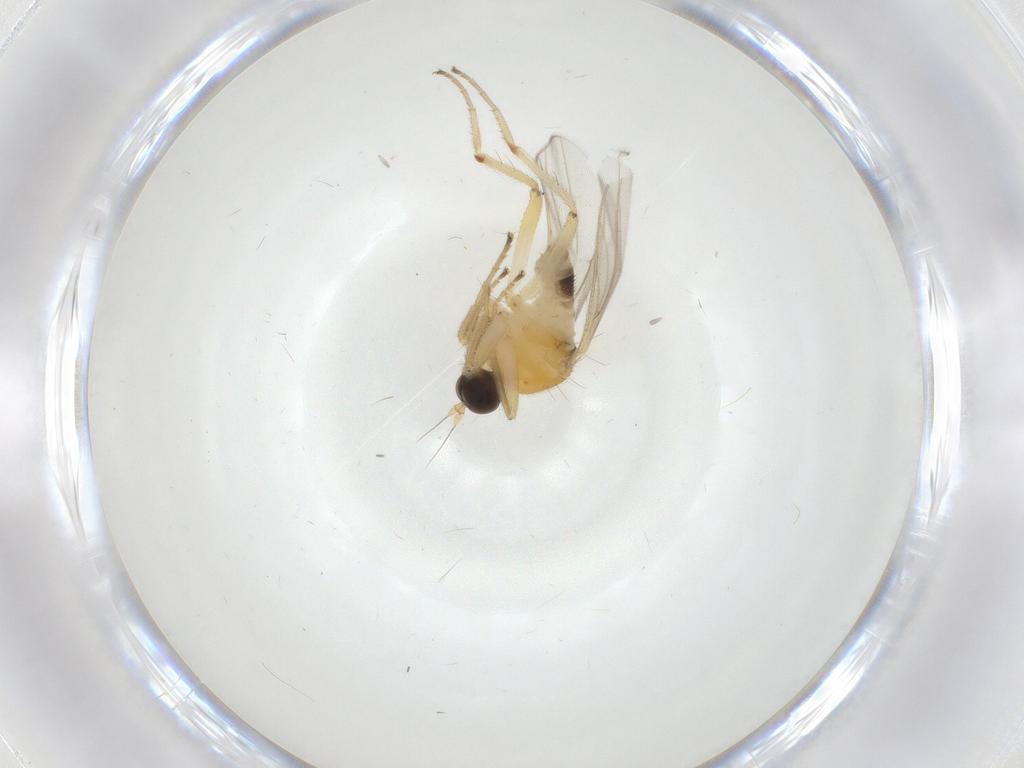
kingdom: Animalia
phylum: Arthropoda
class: Insecta
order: Diptera
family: Hybotidae
